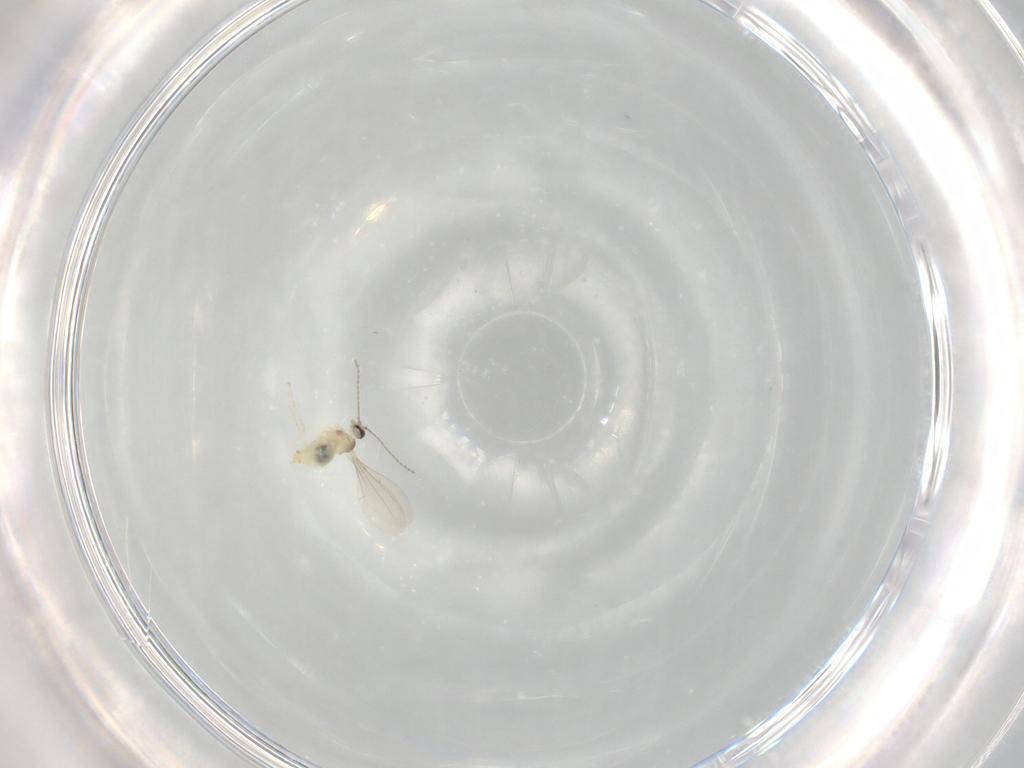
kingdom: Animalia
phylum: Arthropoda
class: Insecta
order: Diptera
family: Cecidomyiidae
